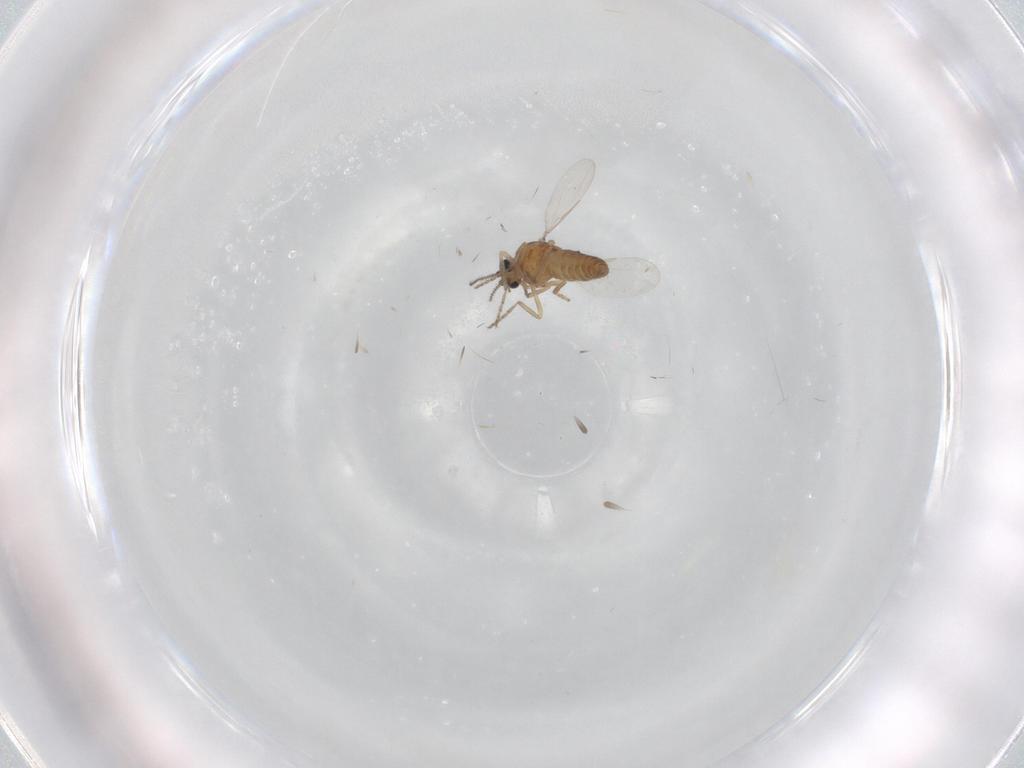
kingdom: Animalia
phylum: Arthropoda
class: Insecta
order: Diptera
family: Ceratopogonidae
